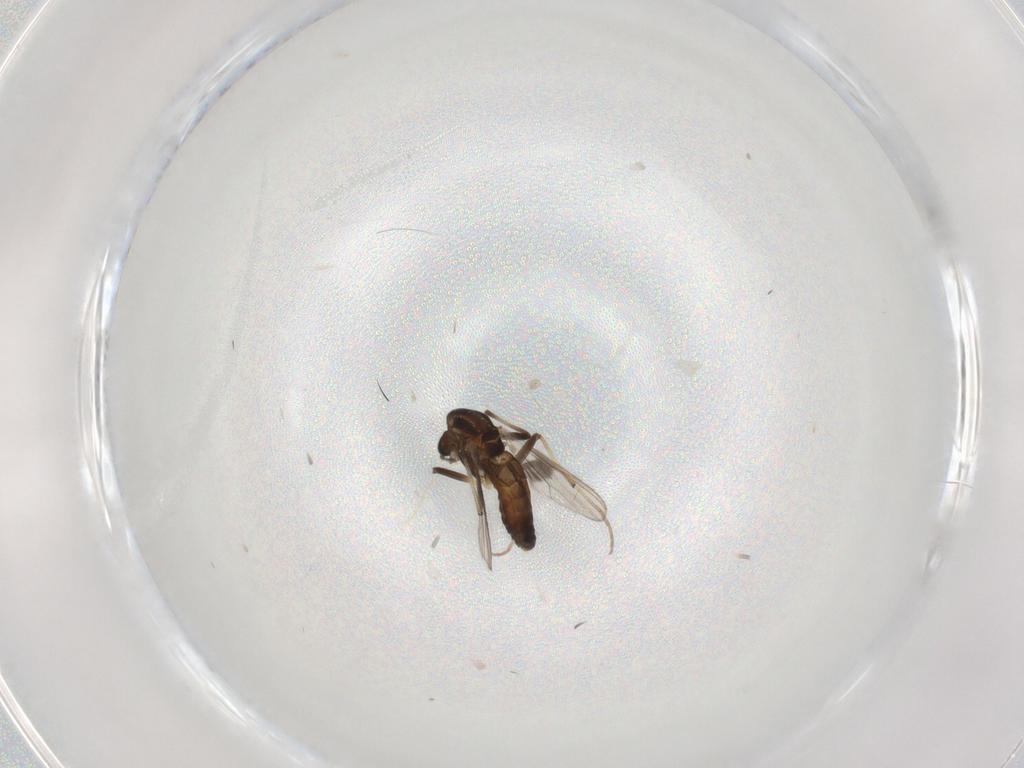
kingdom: Animalia
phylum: Arthropoda
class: Insecta
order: Diptera
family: Chironomidae
